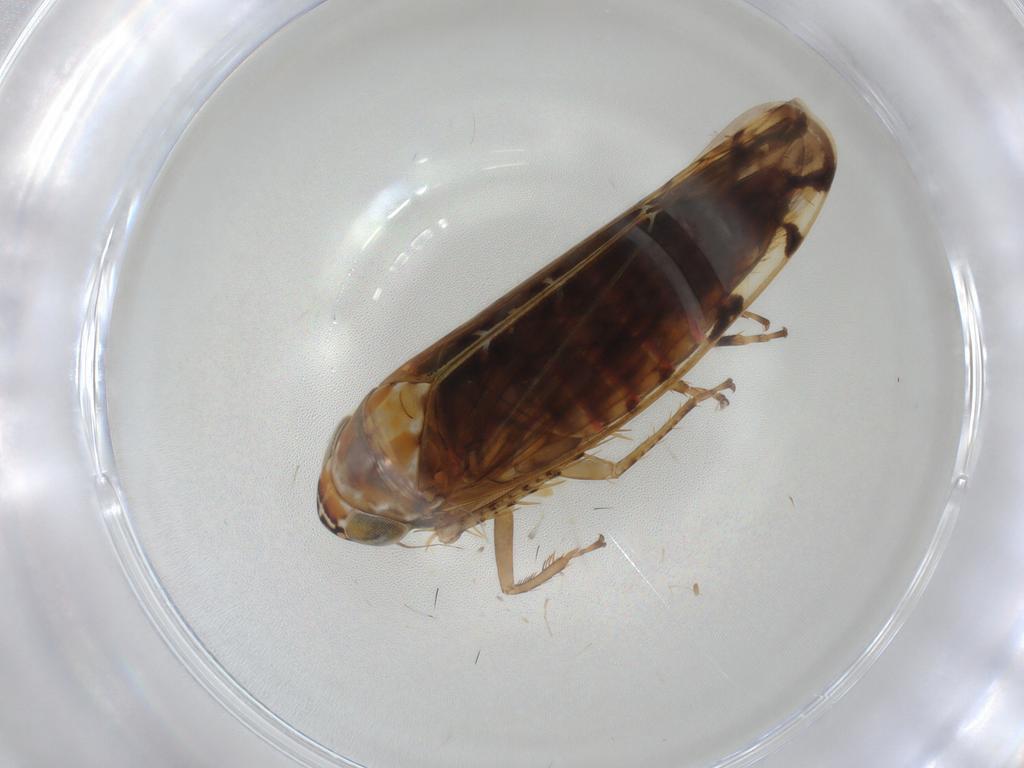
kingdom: Animalia
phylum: Arthropoda
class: Insecta
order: Hemiptera
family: Cicadellidae
